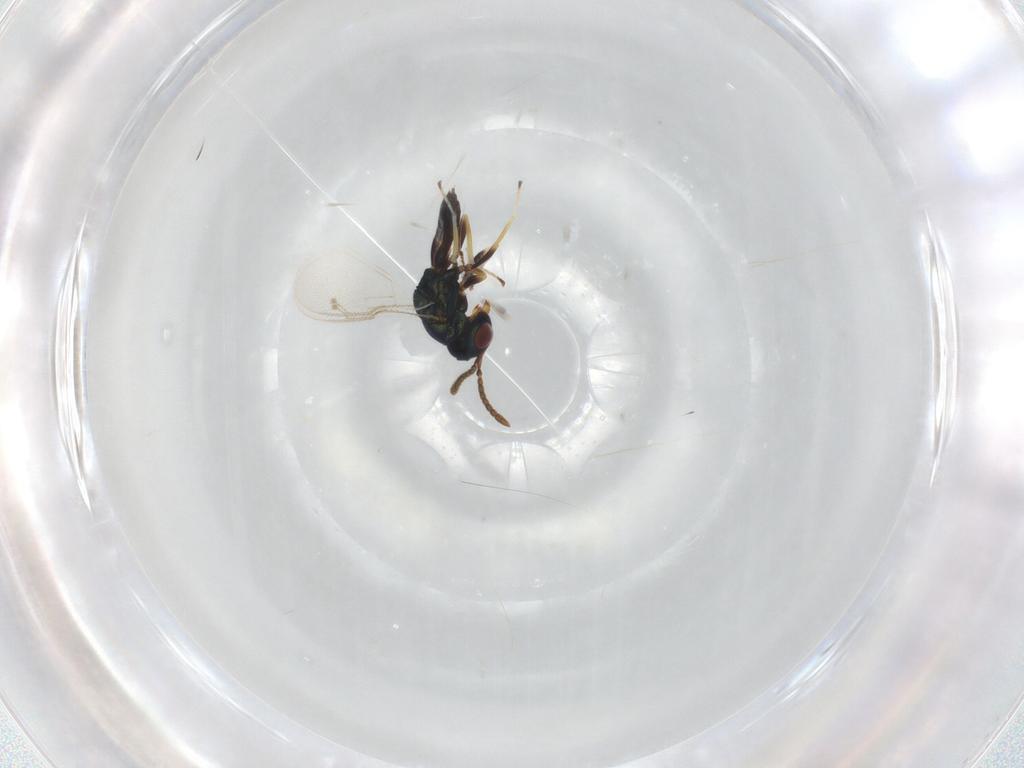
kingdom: Animalia
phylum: Arthropoda
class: Insecta
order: Hymenoptera
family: Pteromalidae
